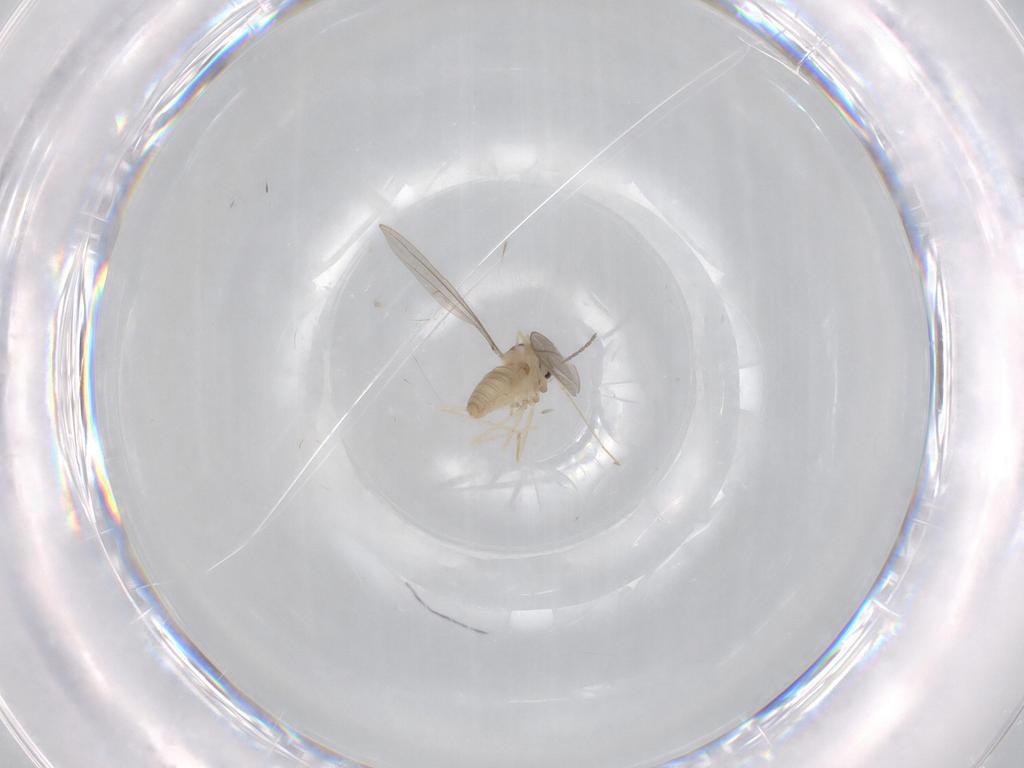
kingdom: Animalia
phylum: Arthropoda
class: Insecta
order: Diptera
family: Cecidomyiidae
